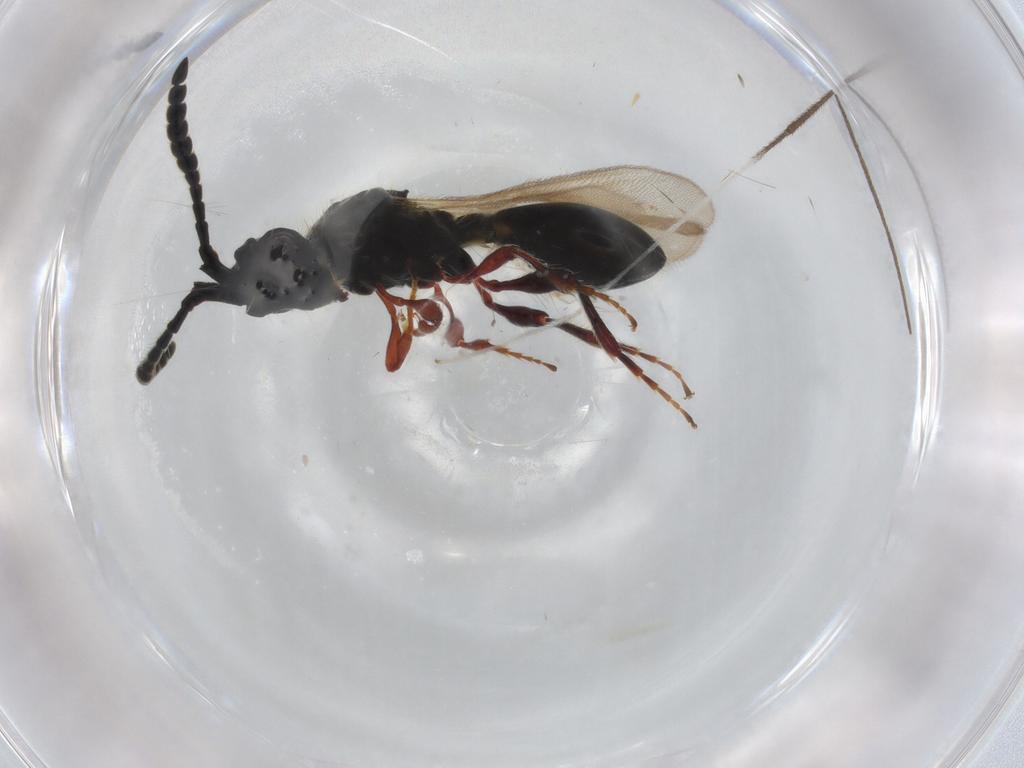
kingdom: Animalia
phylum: Arthropoda
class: Insecta
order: Hymenoptera
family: Diapriidae
